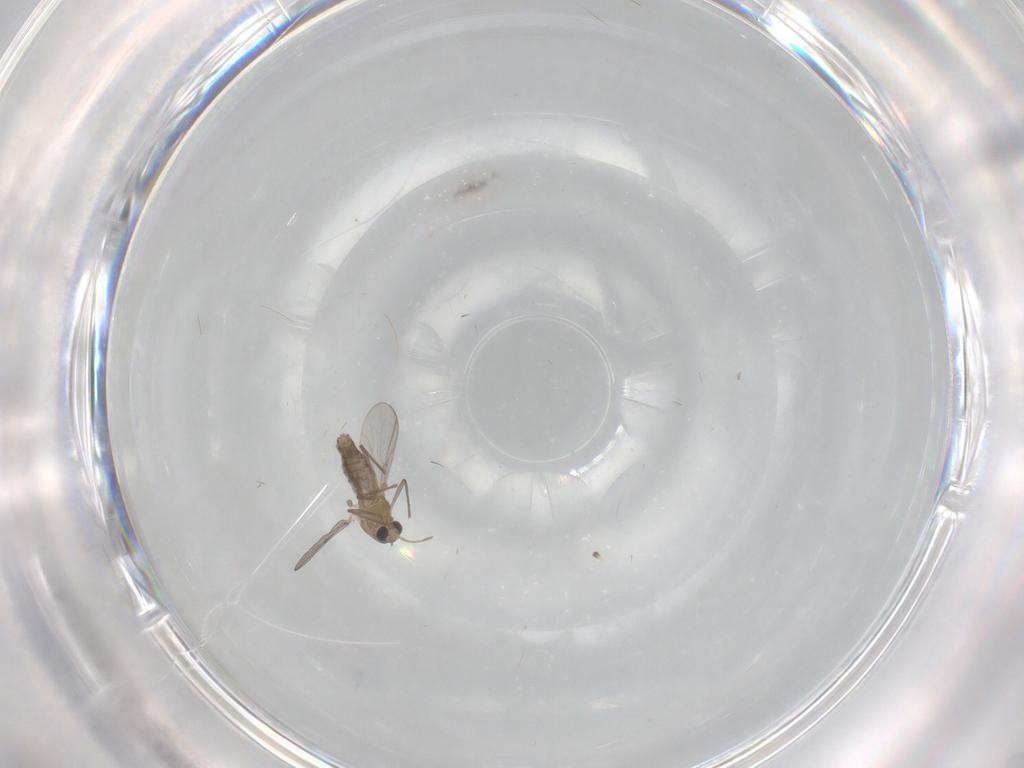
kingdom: Animalia
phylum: Arthropoda
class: Insecta
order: Diptera
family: Chironomidae
